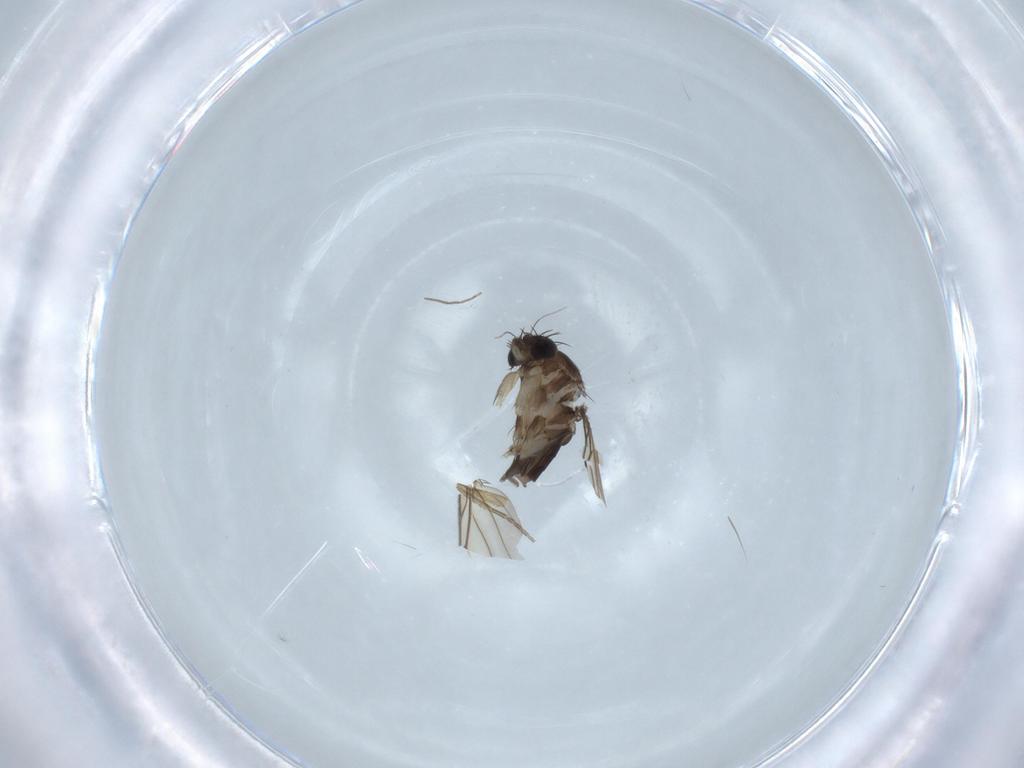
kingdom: Animalia
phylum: Arthropoda
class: Insecta
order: Diptera
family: Phoridae
